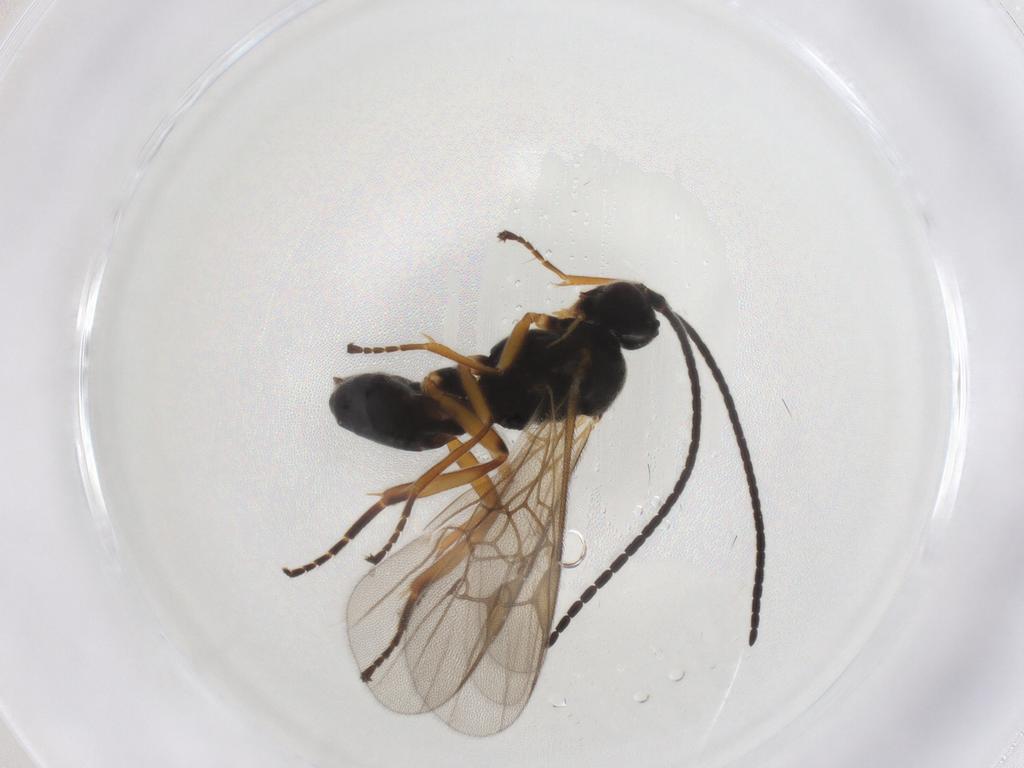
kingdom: Animalia
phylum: Arthropoda
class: Insecta
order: Hymenoptera
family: Braconidae
